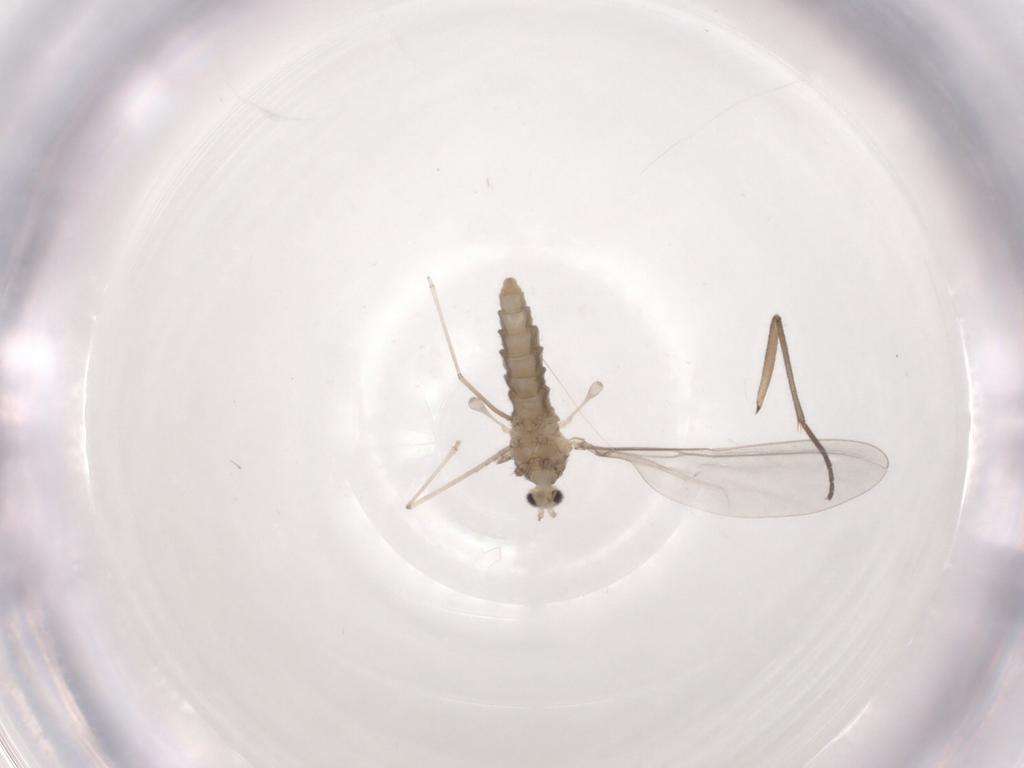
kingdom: Animalia
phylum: Arthropoda
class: Insecta
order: Diptera
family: Cecidomyiidae
